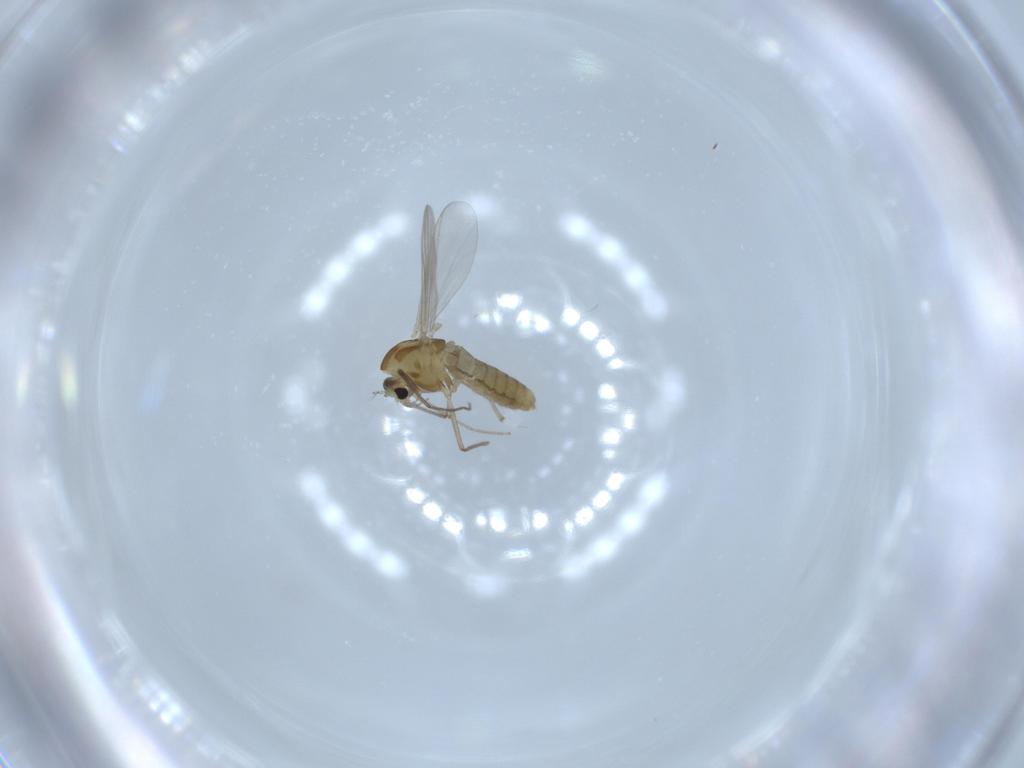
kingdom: Animalia
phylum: Arthropoda
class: Insecta
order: Diptera
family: Chironomidae
